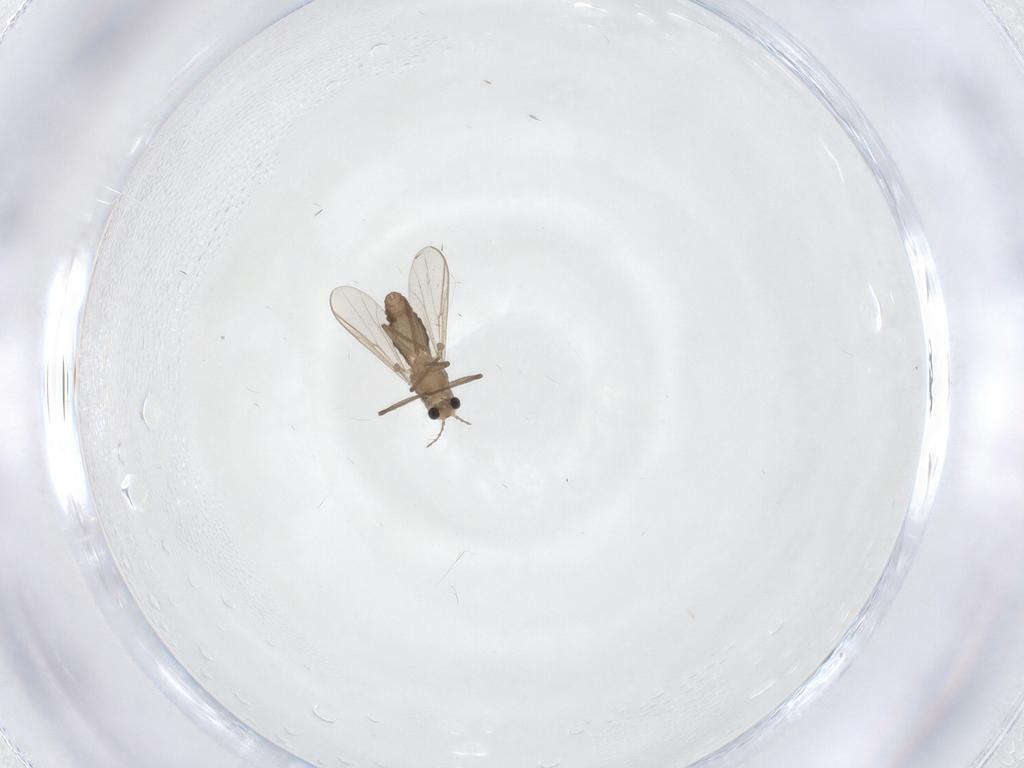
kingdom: Animalia
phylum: Arthropoda
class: Insecta
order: Diptera
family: Chironomidae
